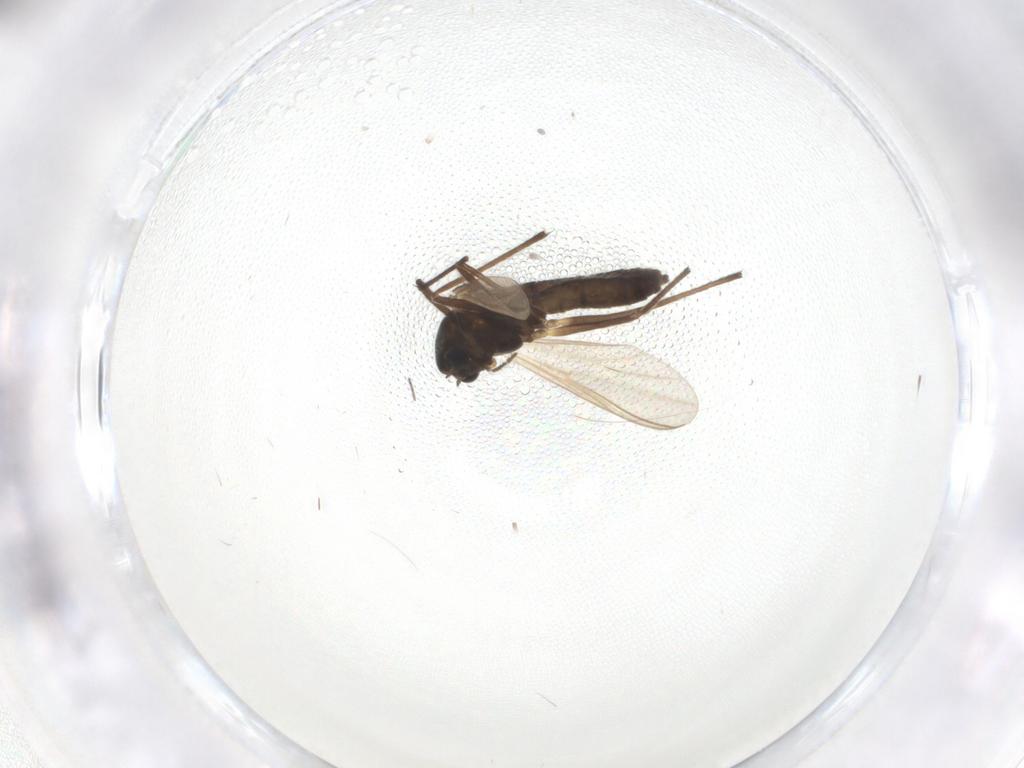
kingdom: Animalia
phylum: Arthropoda
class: Insecta
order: Diptera
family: Chironomidae
